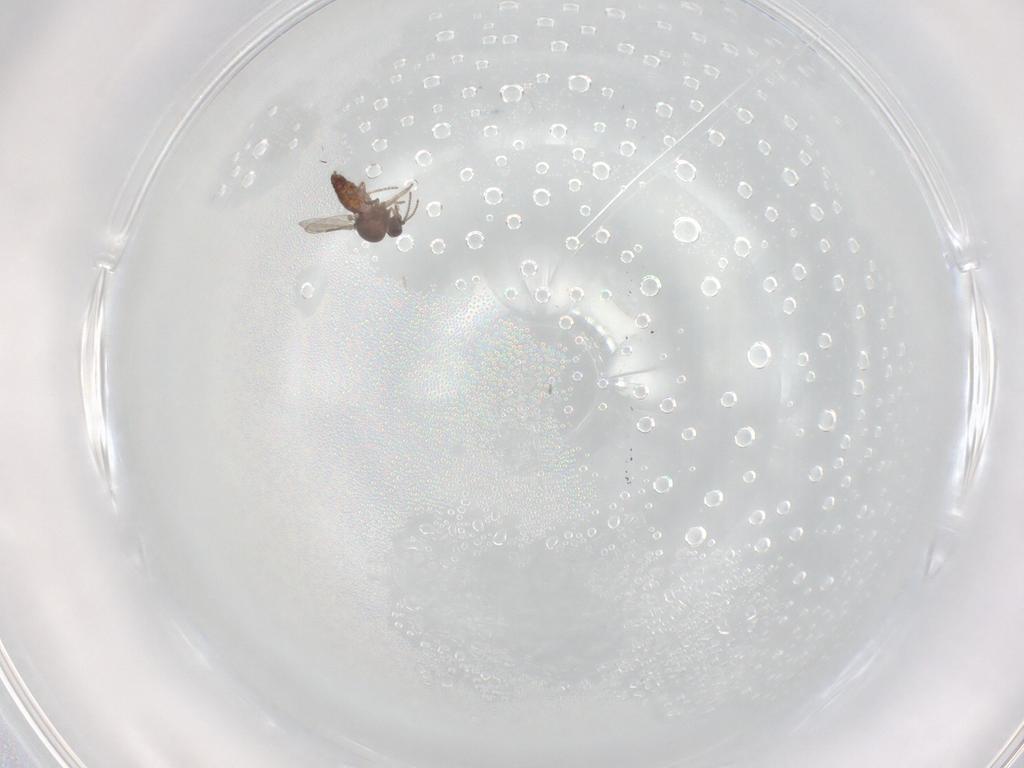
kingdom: Animalia
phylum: Arthropoda
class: Insecta
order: Diptera
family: Ceratopogonidae
